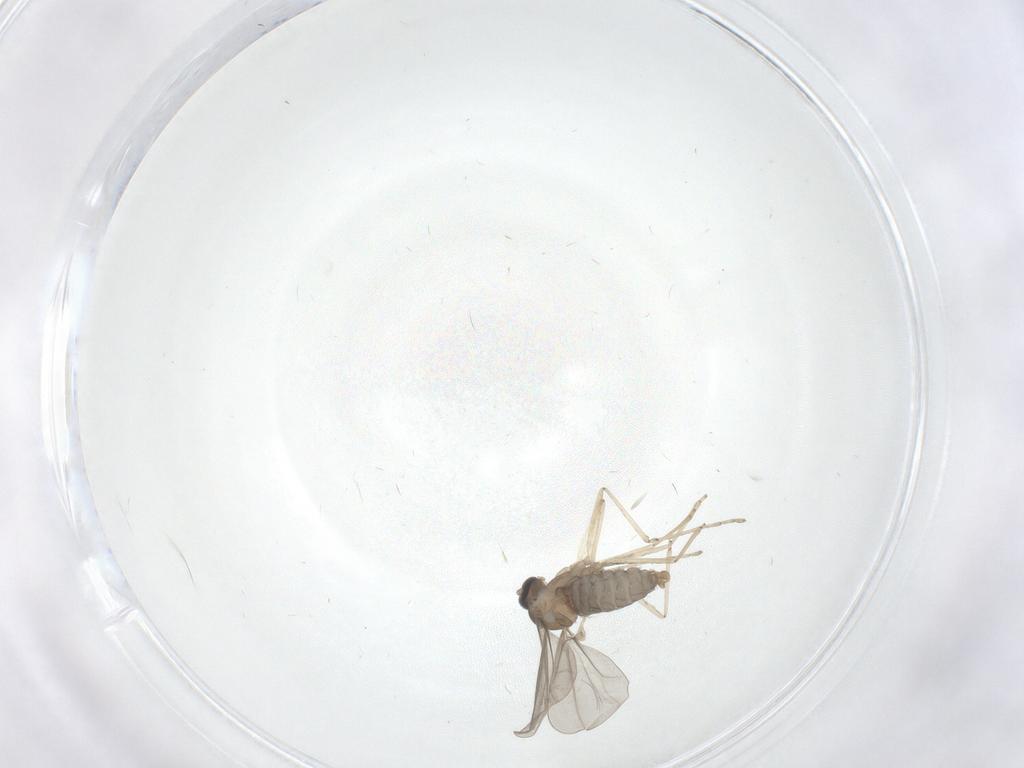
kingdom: Animalia
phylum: Arthropoda
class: Insecta
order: Diptera
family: Cecidomyiidae
